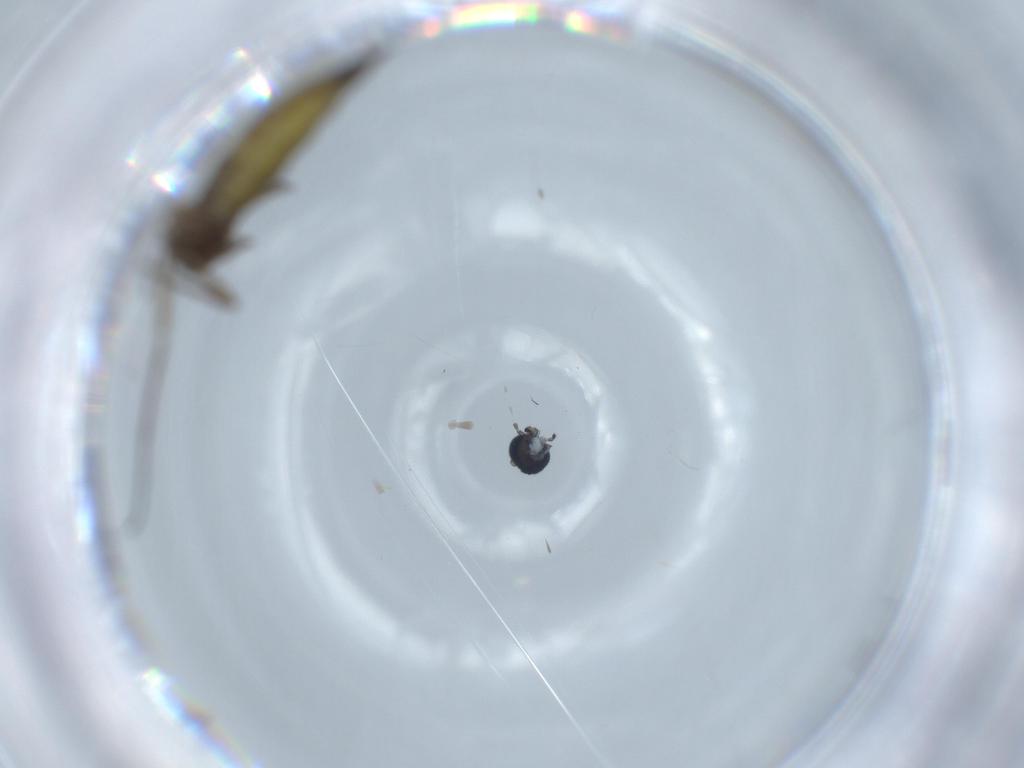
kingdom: Animalia
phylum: Arthropoda
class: Insecta
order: Diptera
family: Sciaridae
